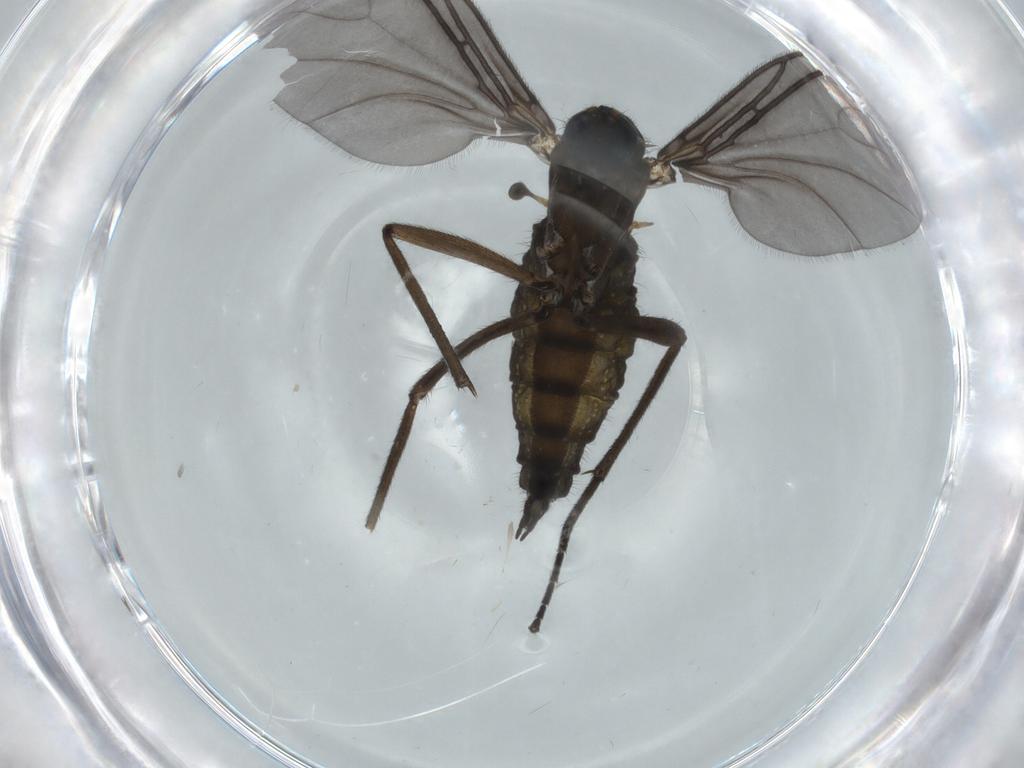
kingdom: Animalia
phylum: Arthropoda
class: Insecta
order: Diptera
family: Sciaridae
